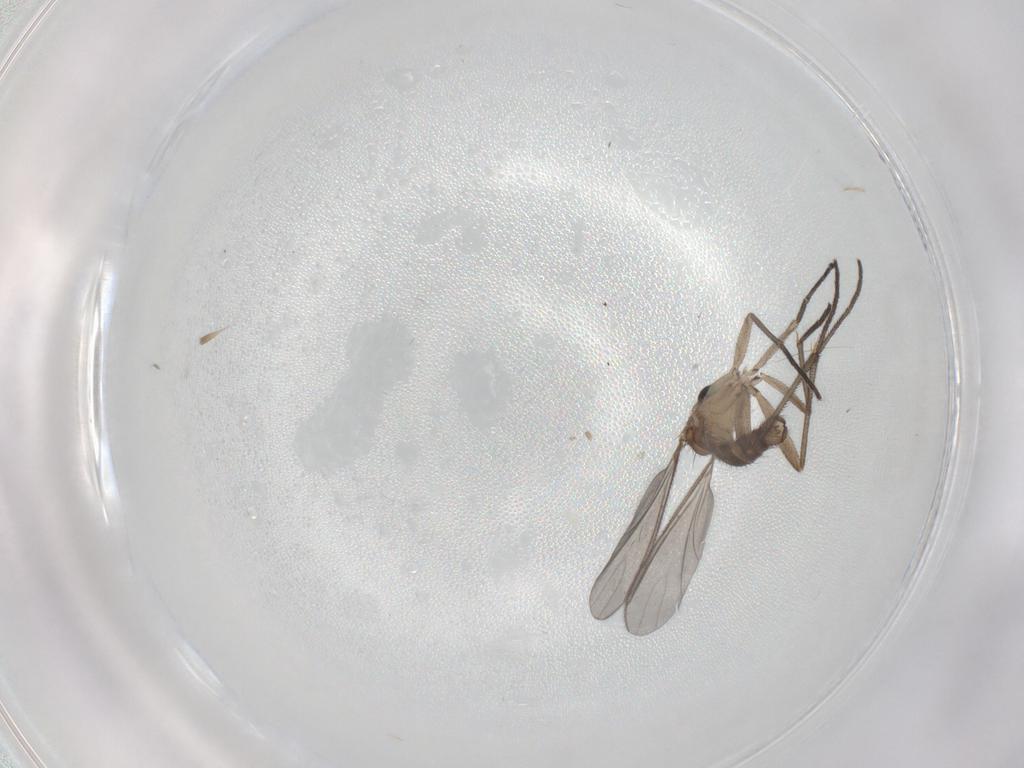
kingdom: Animalia
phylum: Arthropoda
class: Insecta
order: Diptera
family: Sciaridae
